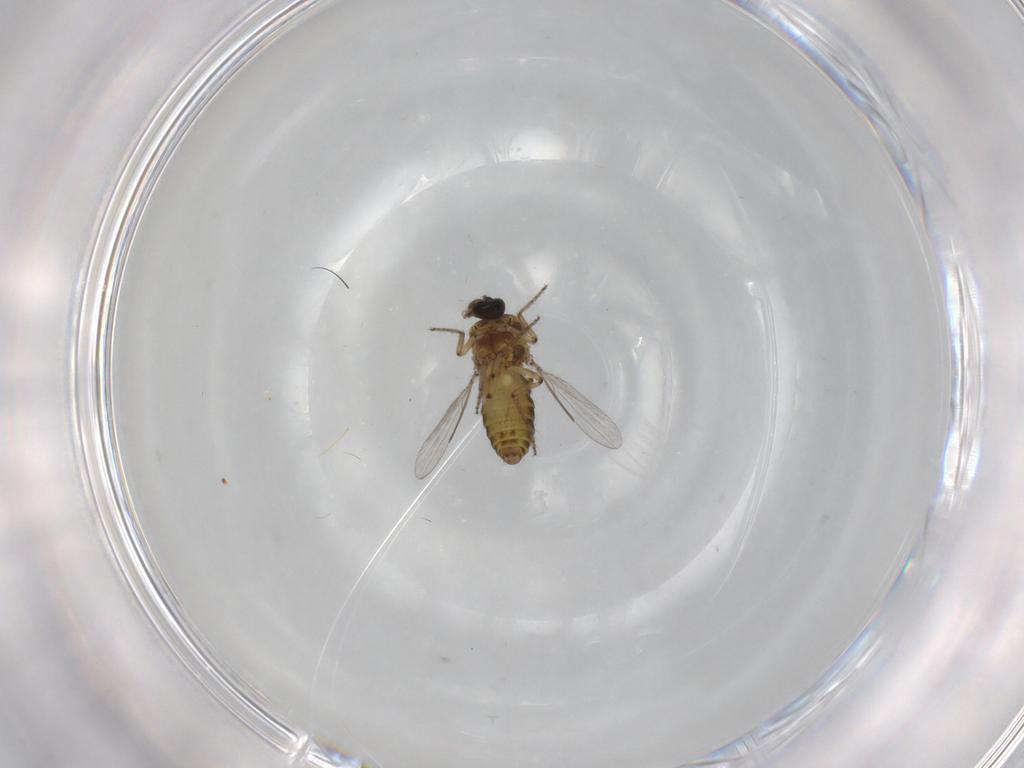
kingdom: Animalia
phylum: Arthropoda
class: Insecta
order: Diptera
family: Ceratopogonidae
